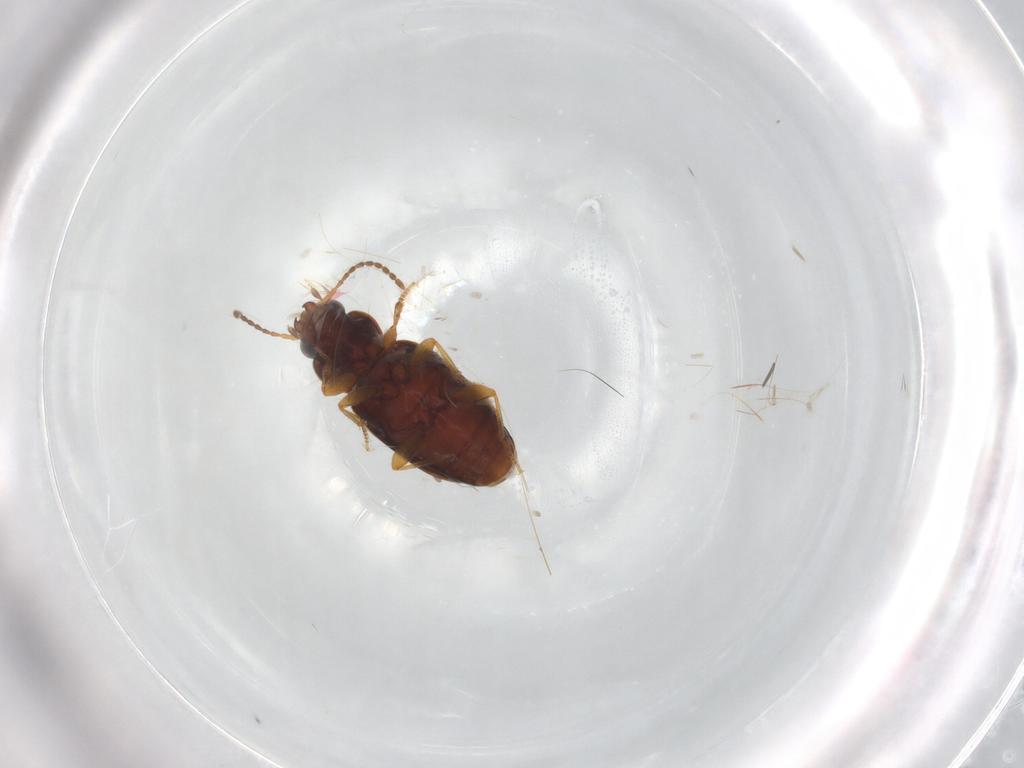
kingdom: Animalia
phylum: Arthropoda
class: Insecta
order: Coleoptera
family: Carabidae
